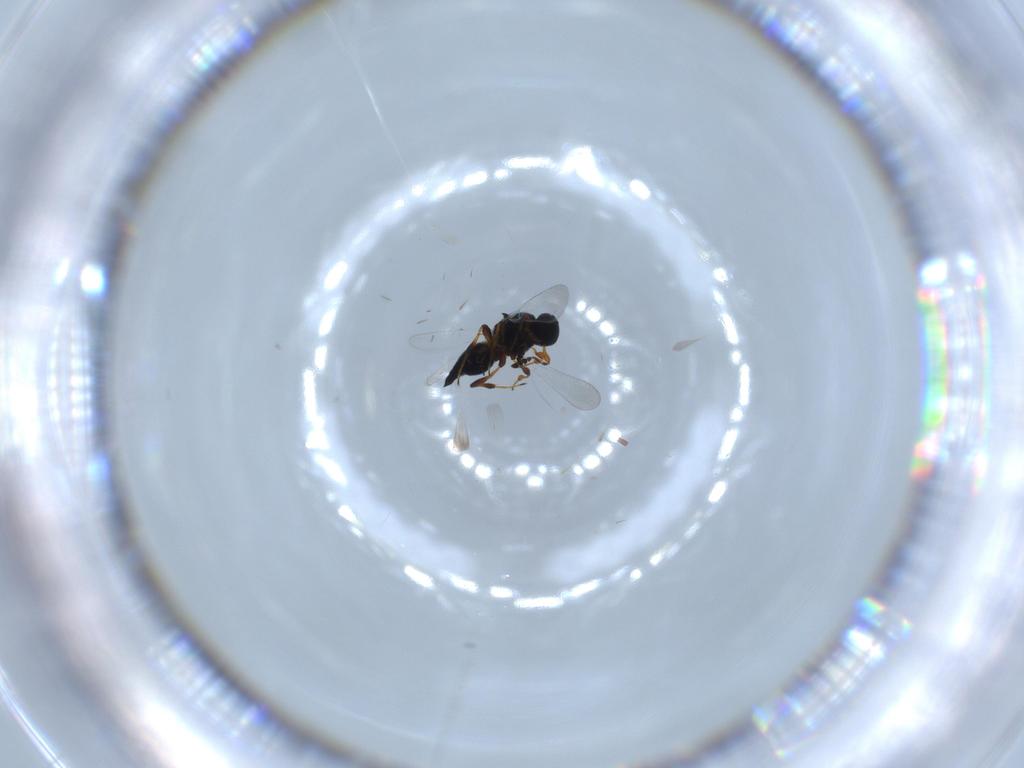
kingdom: Animalia
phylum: Arthropoda
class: Insecta
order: Hymenoptera
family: Platygastridae
